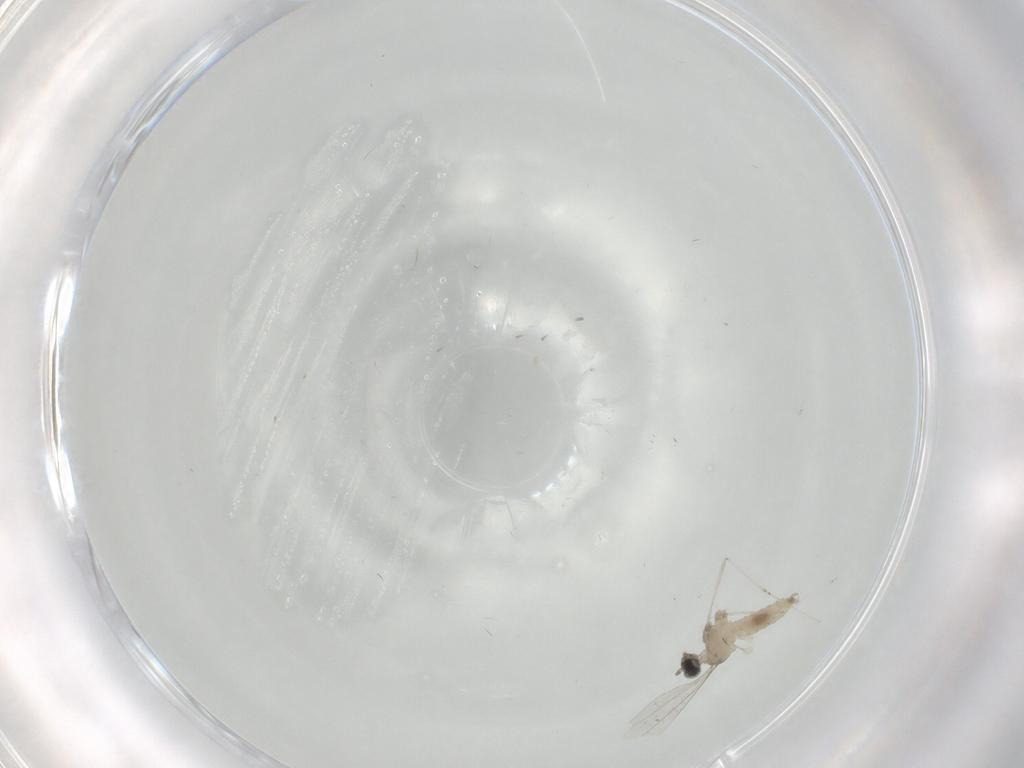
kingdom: Animalia
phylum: Arthropoda
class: Insecta
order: Diptera
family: Cecidomyiidae
